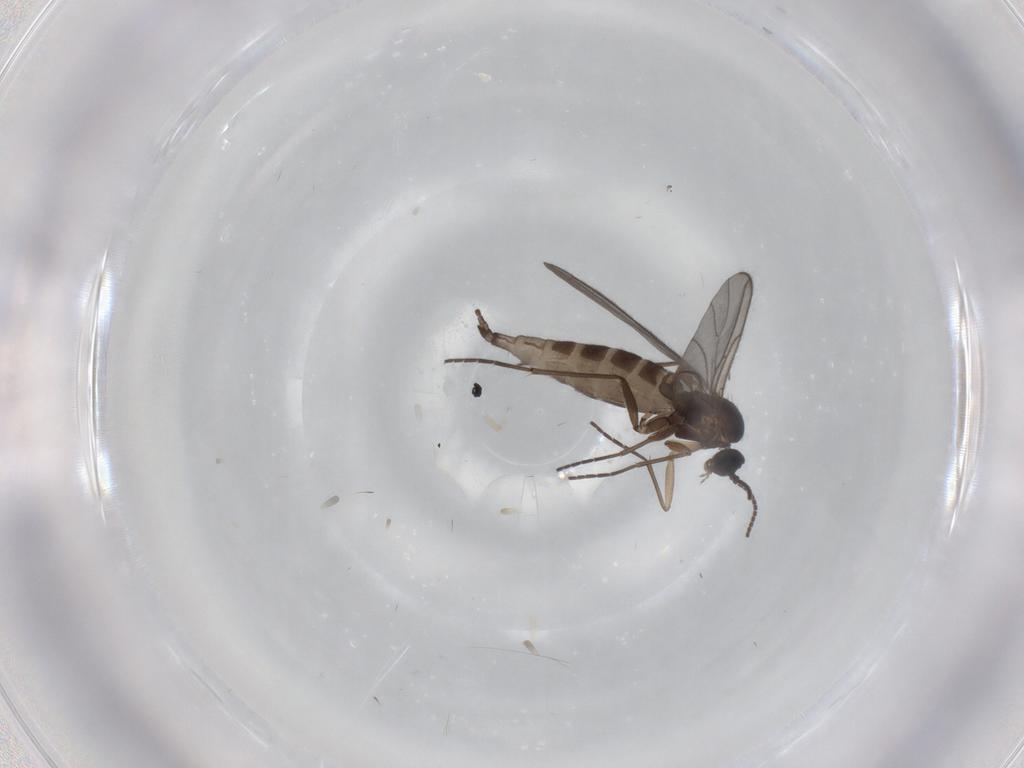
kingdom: Animalia
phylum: Arthropoda
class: Insecta
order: Diptera
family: Sciaridae
